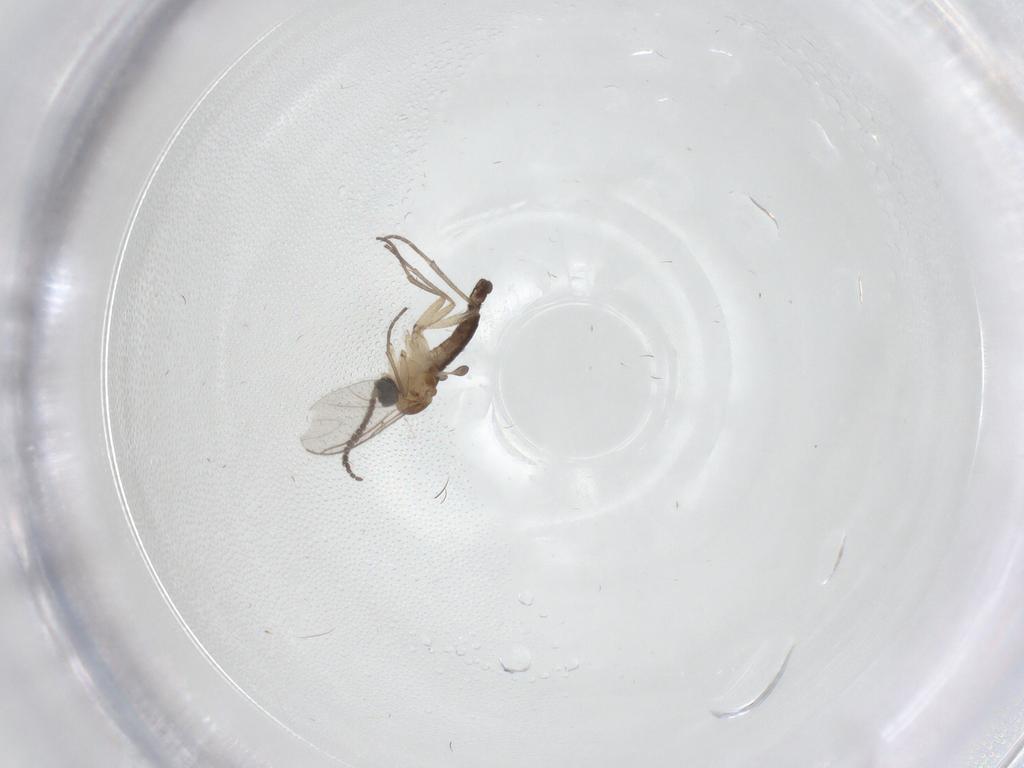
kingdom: Animalia
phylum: Arthropoda
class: Insecta
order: Diptera
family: Sciaridae
